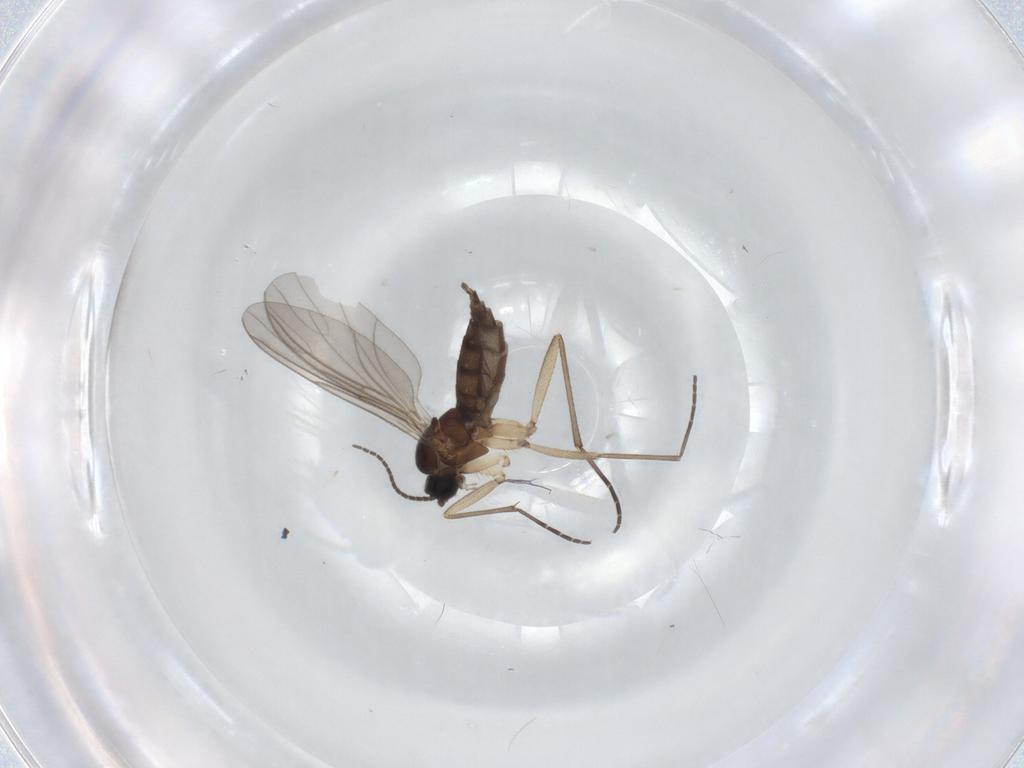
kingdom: Animalia
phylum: Arthropoda
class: Insecta
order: Diptera
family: Sciaridae
